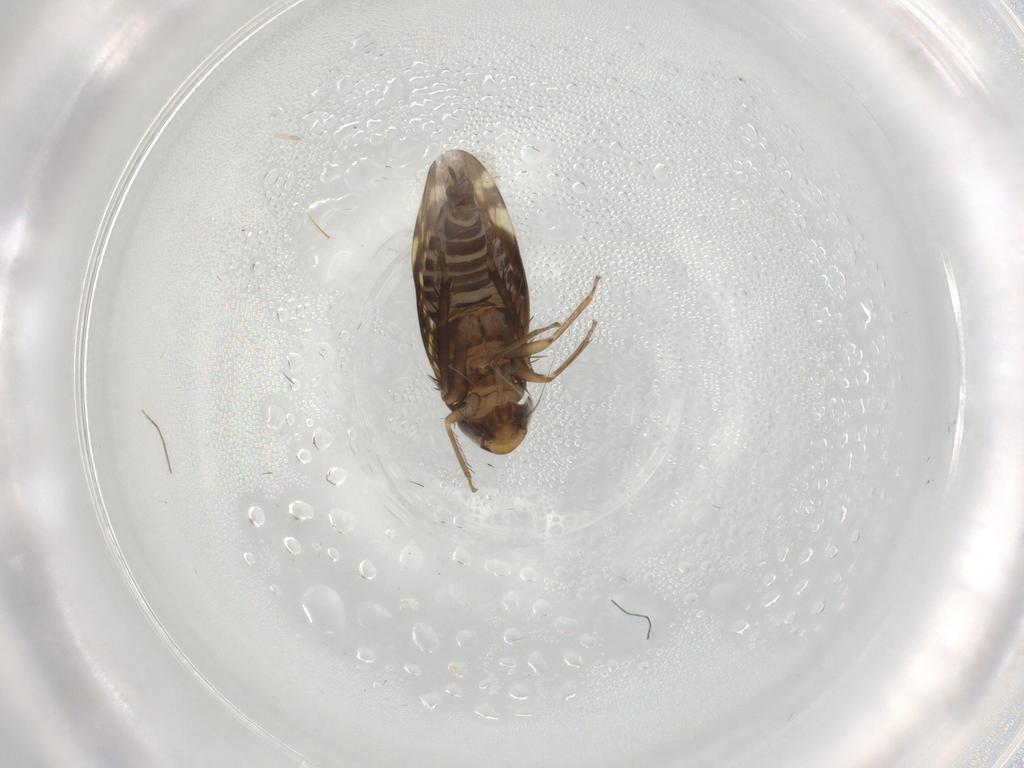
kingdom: Animalia
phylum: Arthropoda
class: Insecta
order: Hemiptera
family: Cicadellidae
